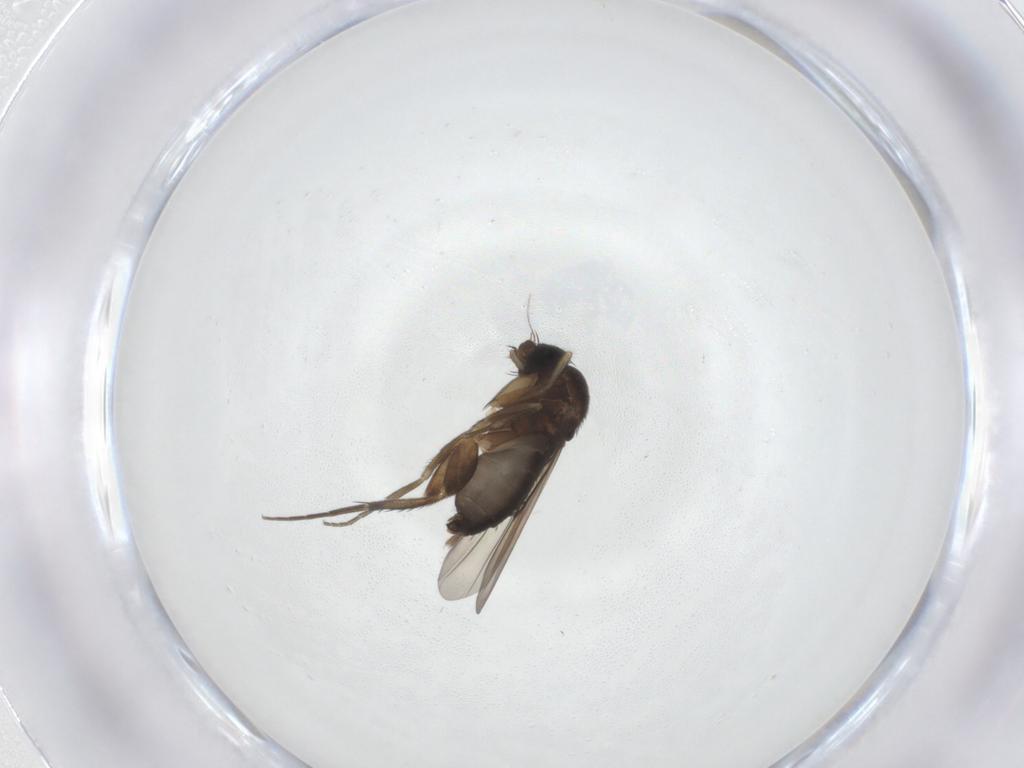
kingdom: Animalia
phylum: Arthropoda
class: Insecta
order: Diptera
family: Phoridae
